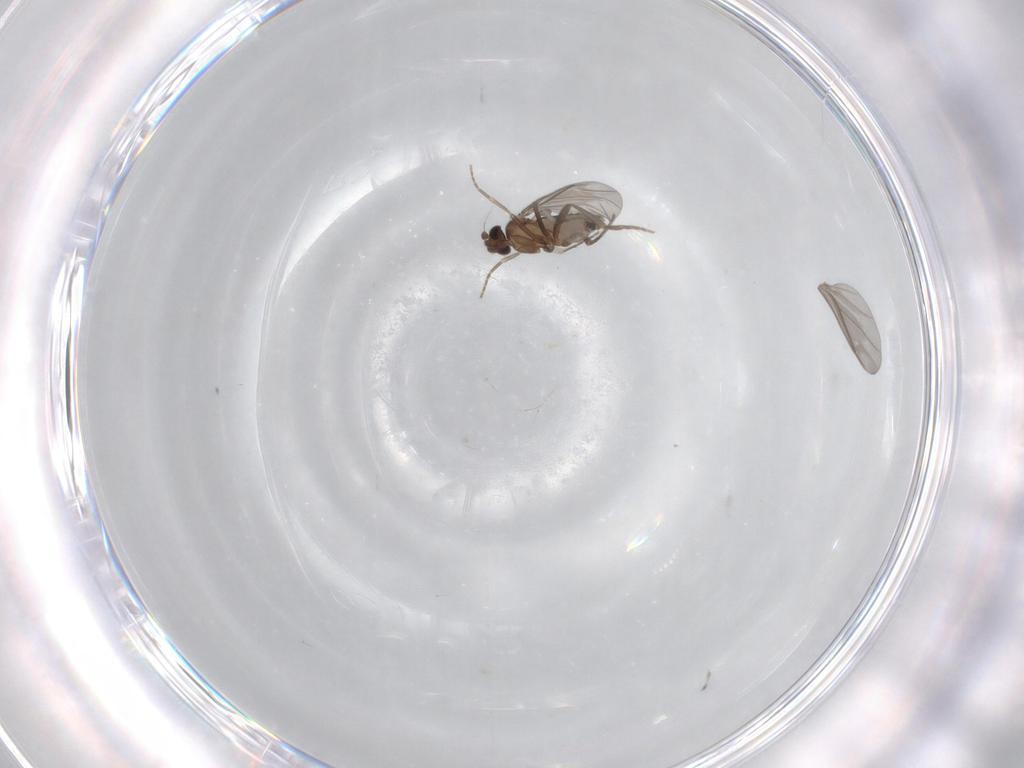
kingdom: Animalia
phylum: Arthropoda
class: Insecta
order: Diptera
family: Phoridae
